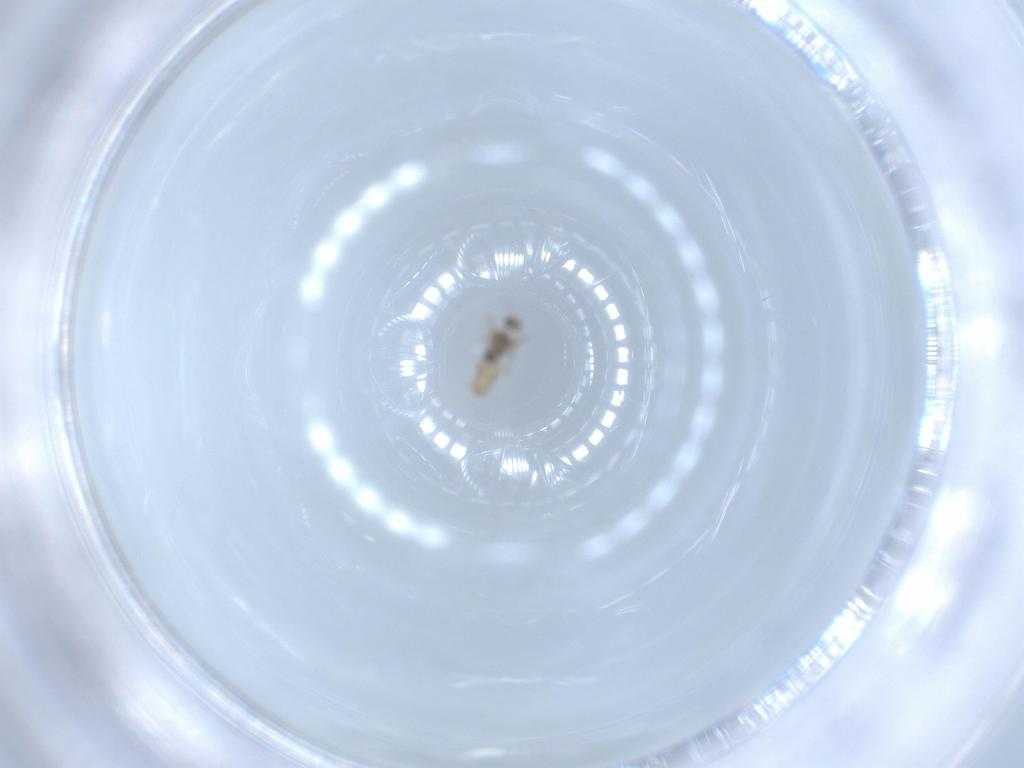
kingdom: Animalia
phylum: Arthropoda
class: Insecta
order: Diptera
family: Cecidomyiidae
